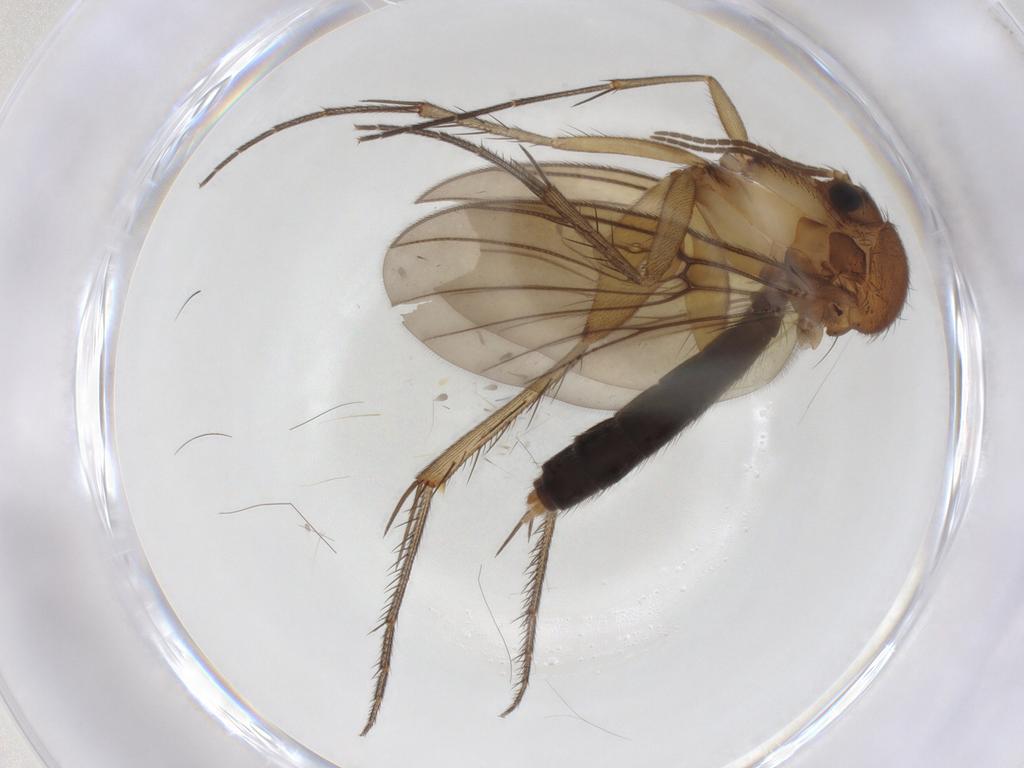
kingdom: Animalia
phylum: Arthropoda
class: Insecta
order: Diptera
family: Mycetophilidae
